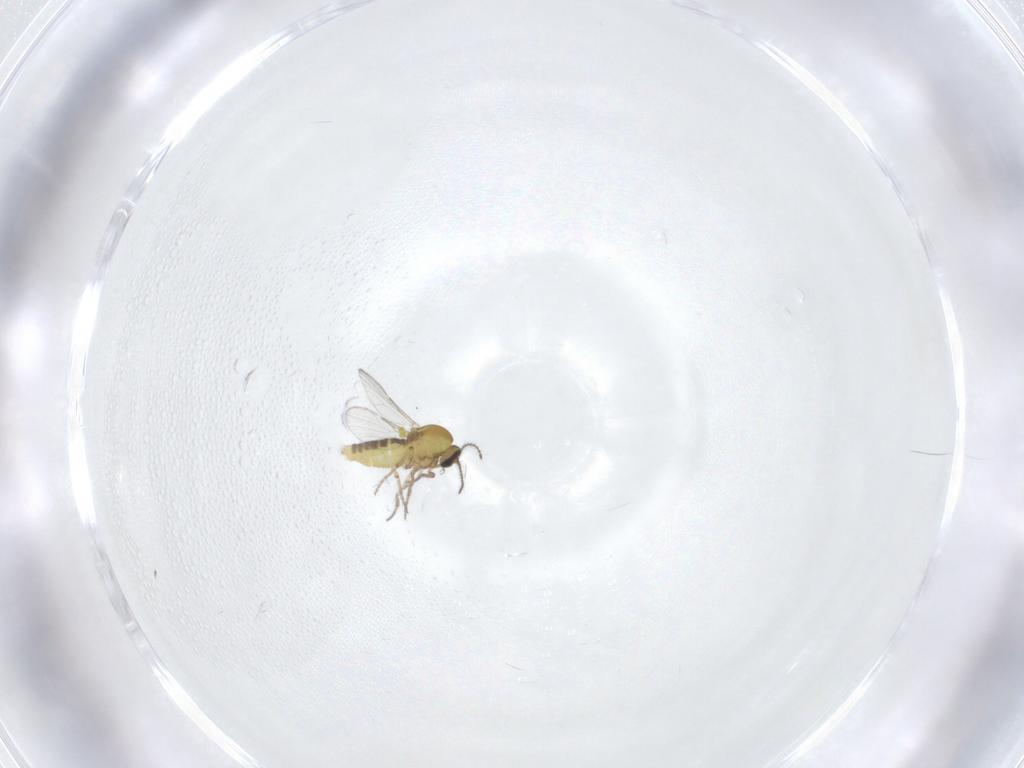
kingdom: Animalia
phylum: Arthropoda
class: Insecta
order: Diptera
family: Ceratopogonidae
